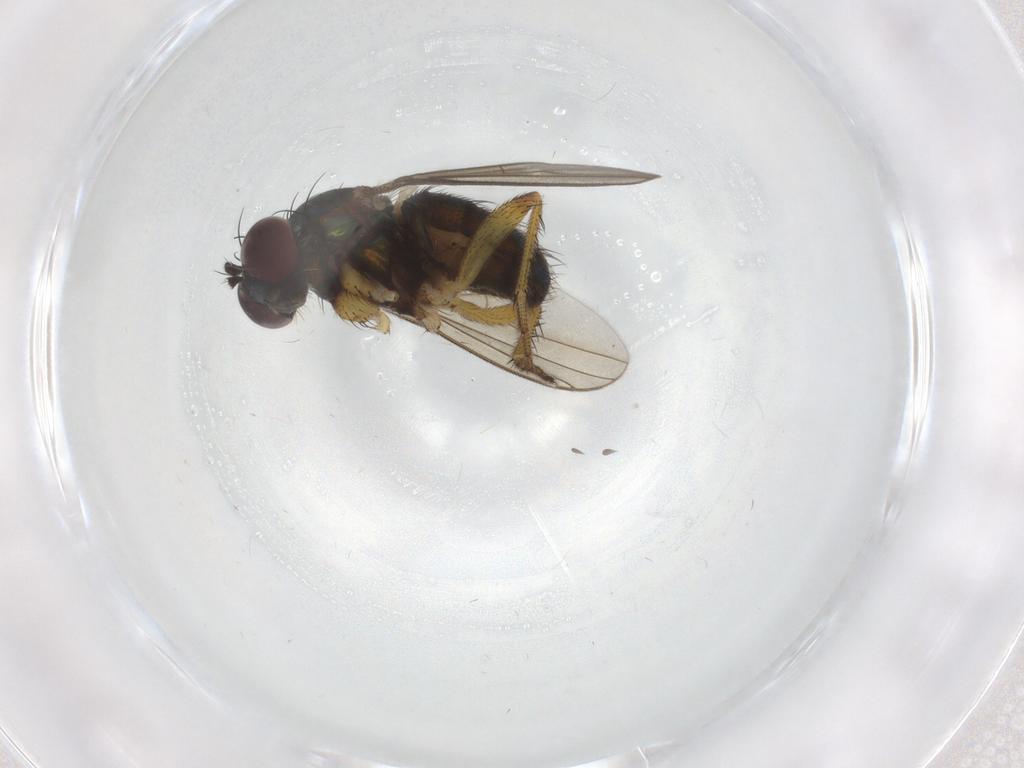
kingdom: Animalia
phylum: Arthropoda
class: Insecta
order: Diptera
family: Dolichopodidae
